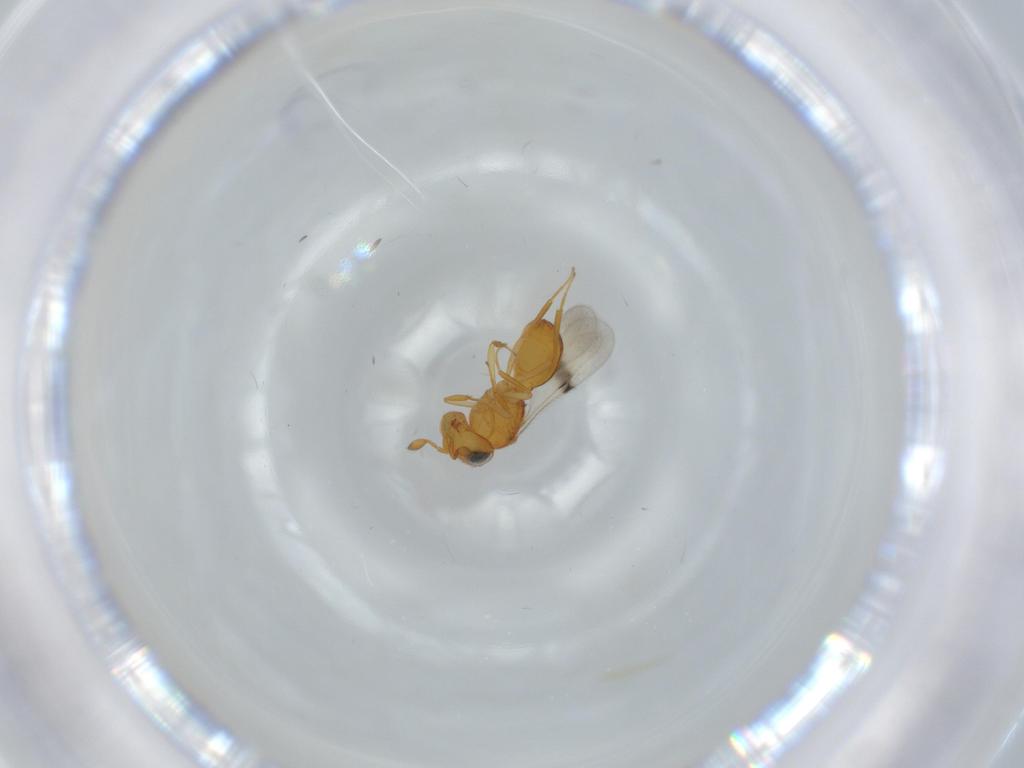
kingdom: Animalia
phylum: Arthropoda
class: Insecta
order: Hymenoptera
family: Scelionidae
